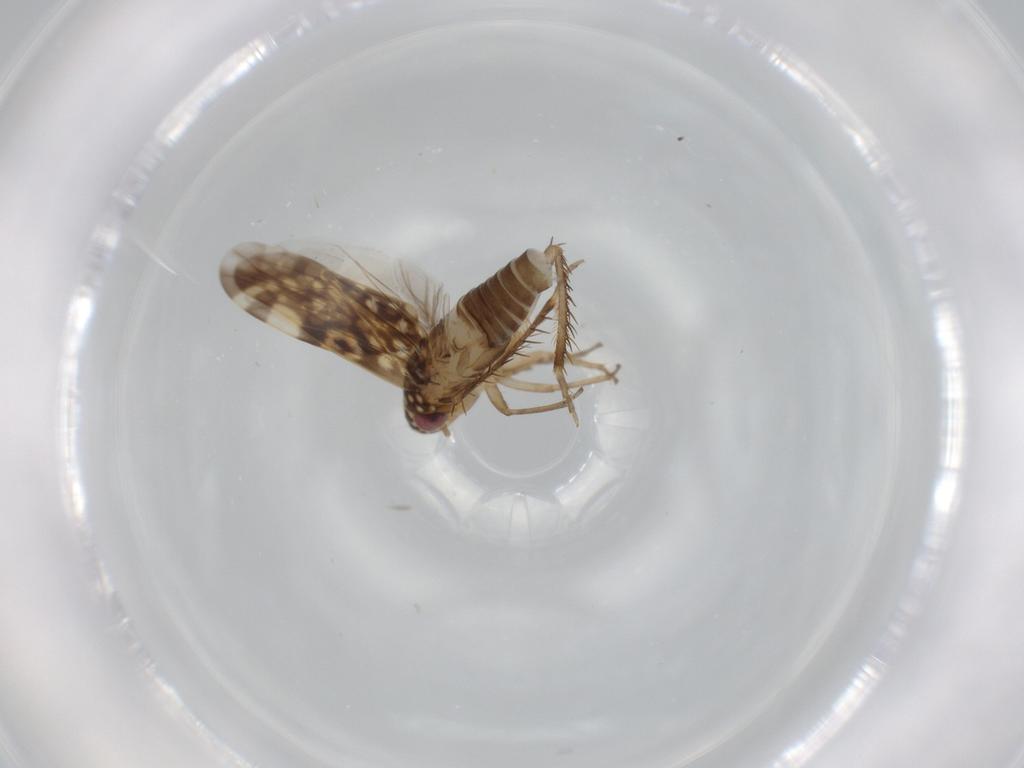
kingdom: Animalia
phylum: Arthropoda
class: Insecta
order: Hemiptera
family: Cicadellidae
